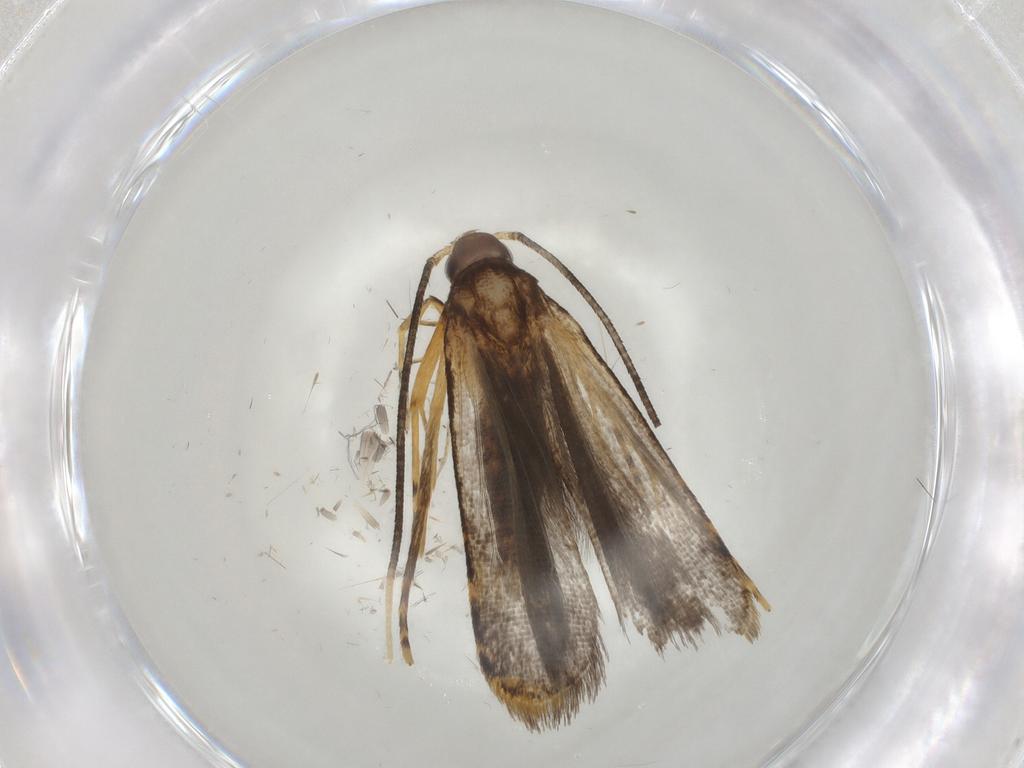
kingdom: Animalia
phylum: Arthropoda
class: Insecta
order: Lepidoptera
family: Cosmopterigidae
